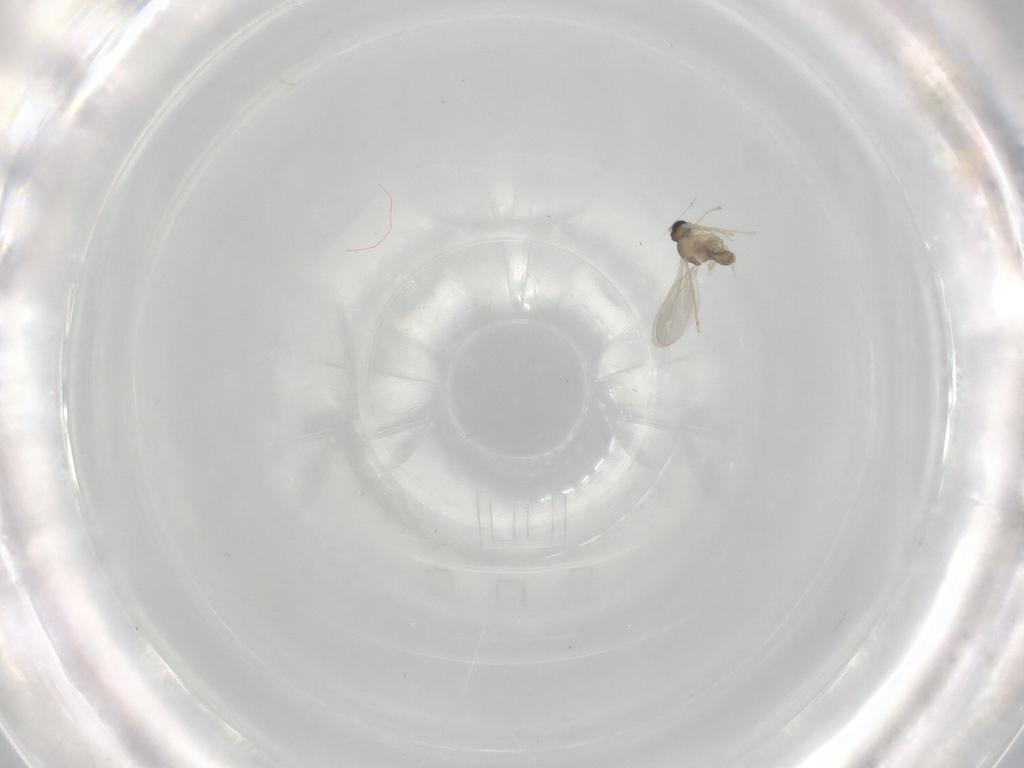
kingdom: Animalia
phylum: Arthropoda
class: Insecta
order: Diptera
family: Cecidomyiidae
